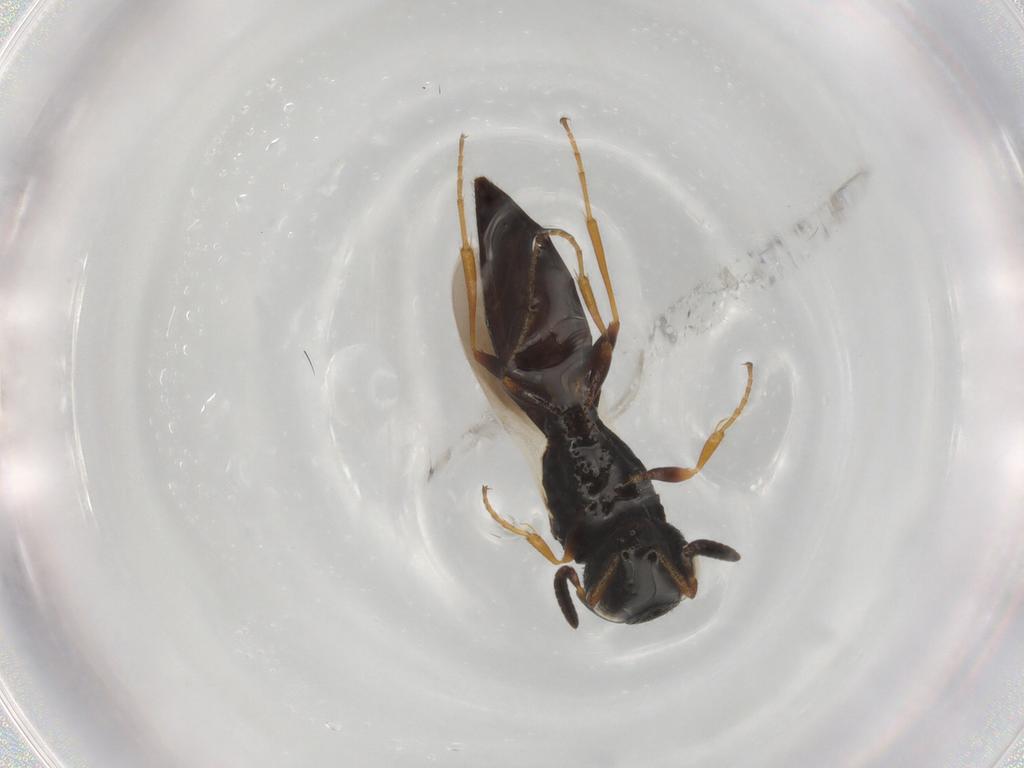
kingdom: Animalia
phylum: Arthropoda
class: Insecta
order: Hymenoptera
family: Scelionidae
